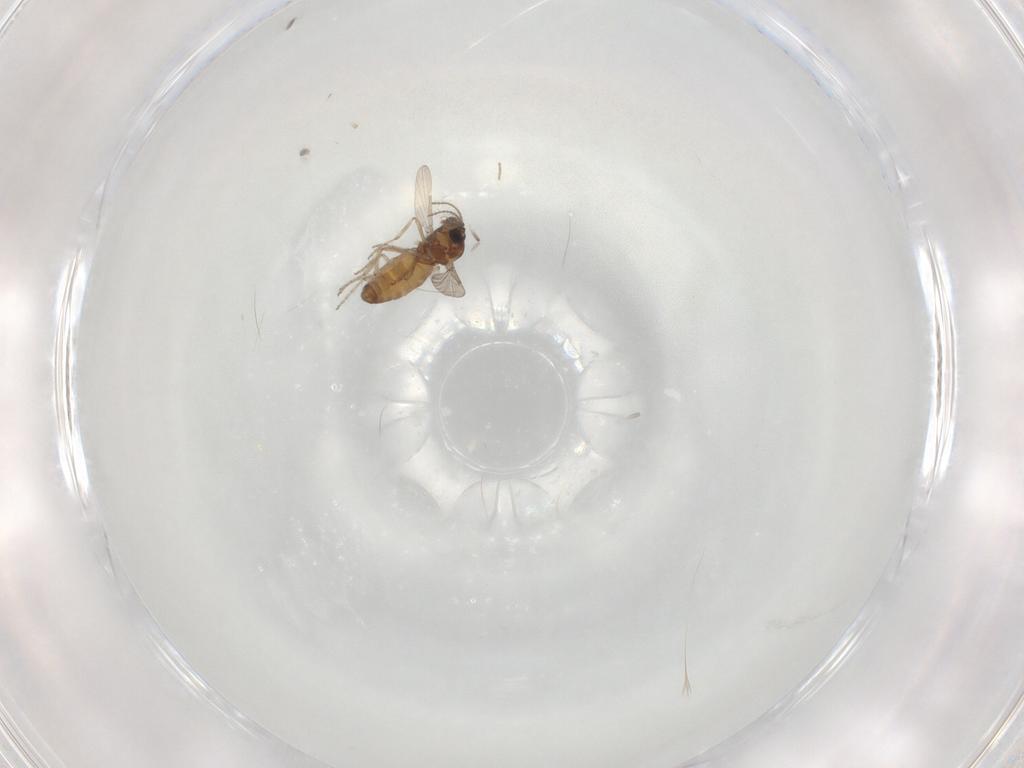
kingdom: Animalia
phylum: Arthropoda
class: Insecta
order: Diptera
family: Ceratopogonidae
